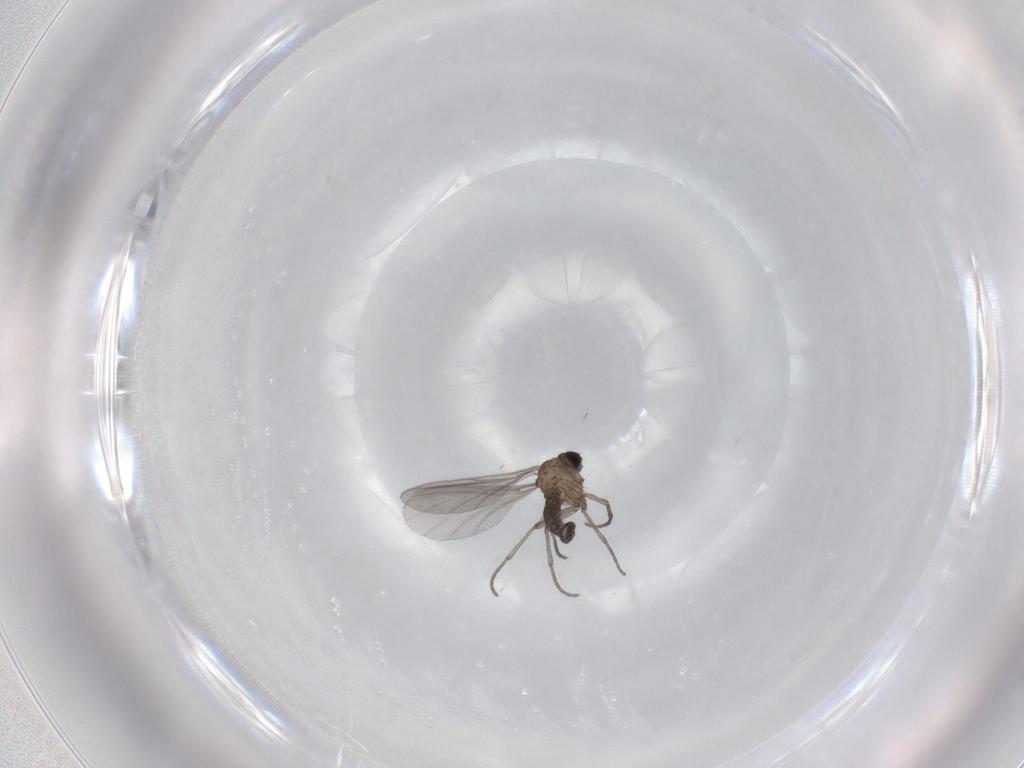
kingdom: Animalia
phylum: Arthropoda
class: Insecta
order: Diptera
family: Sciaridae
